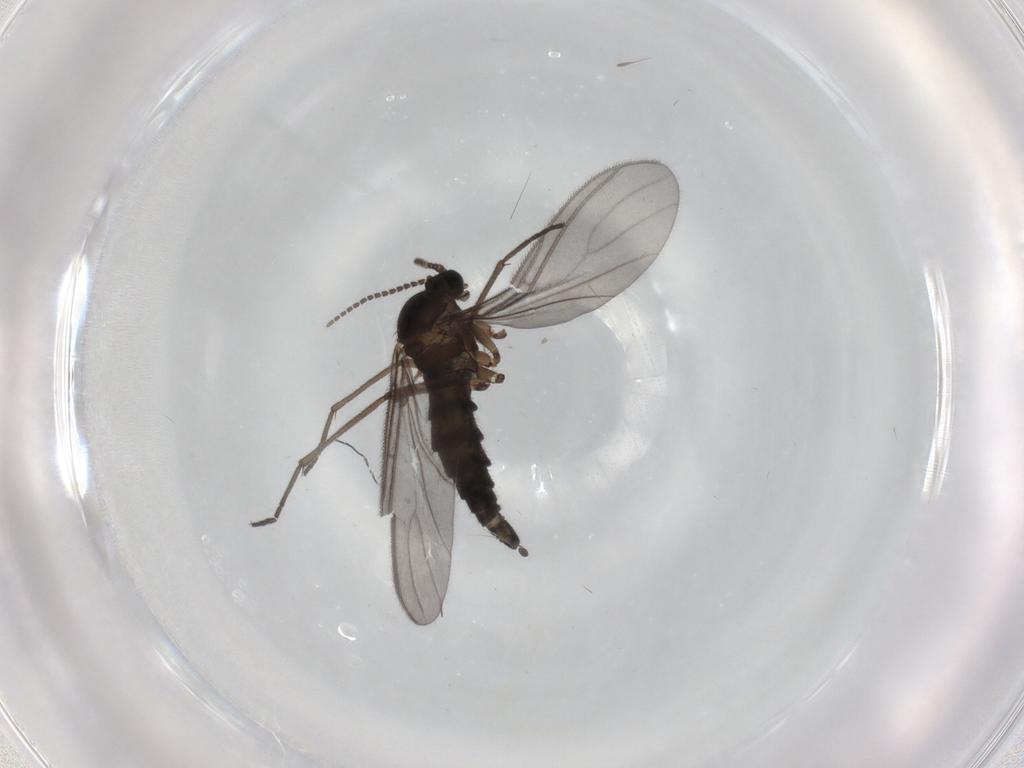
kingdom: Animalia
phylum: Arthropoda
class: Insecta
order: Diptera
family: Sciaridae
